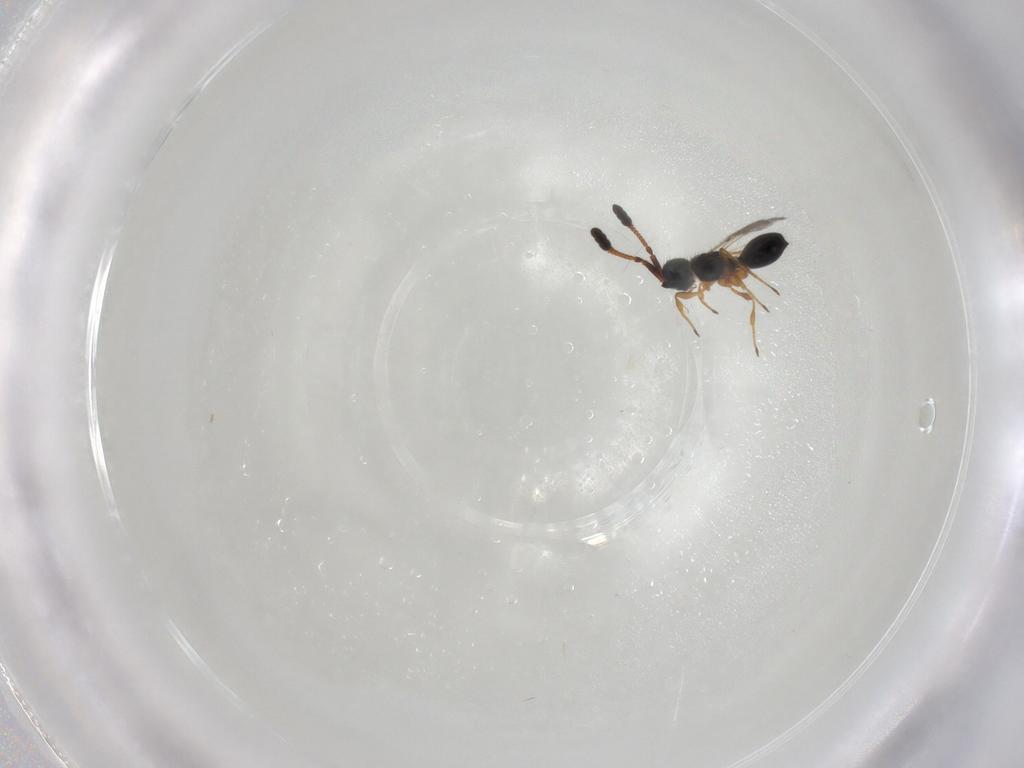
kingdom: Animalia
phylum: Arthropoda
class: Insecta
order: Hymenoptera
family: Diapriidae
